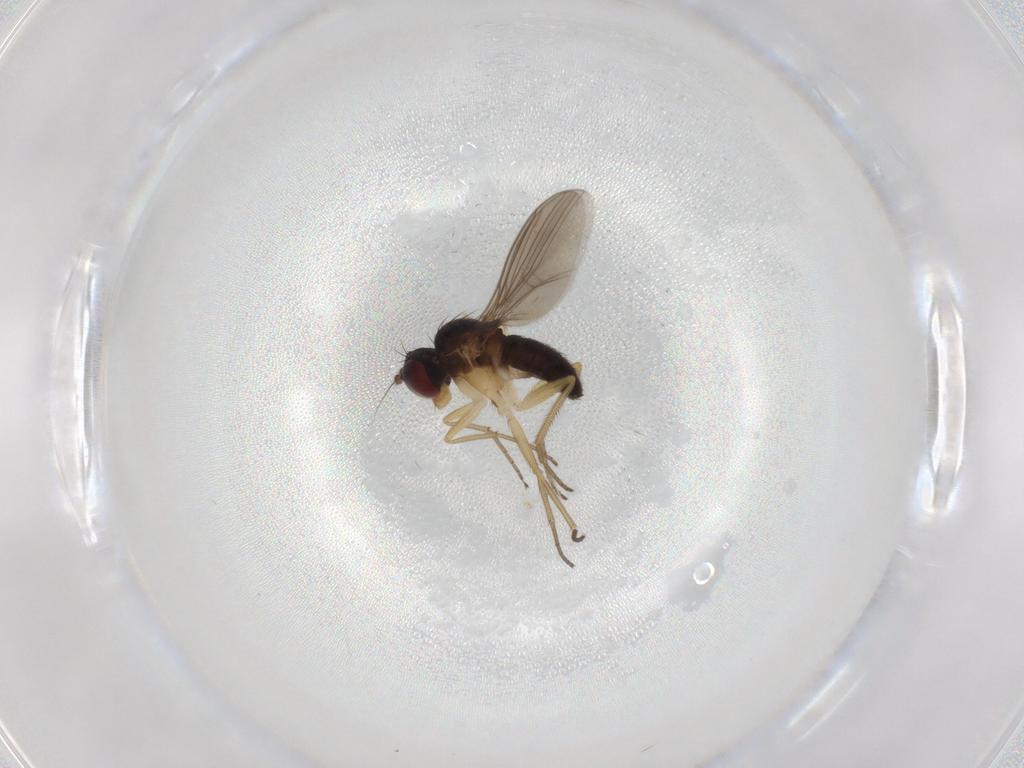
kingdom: Animalia
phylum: Arthropoda
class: Insecta
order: Diptera
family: Dolichopodidae
